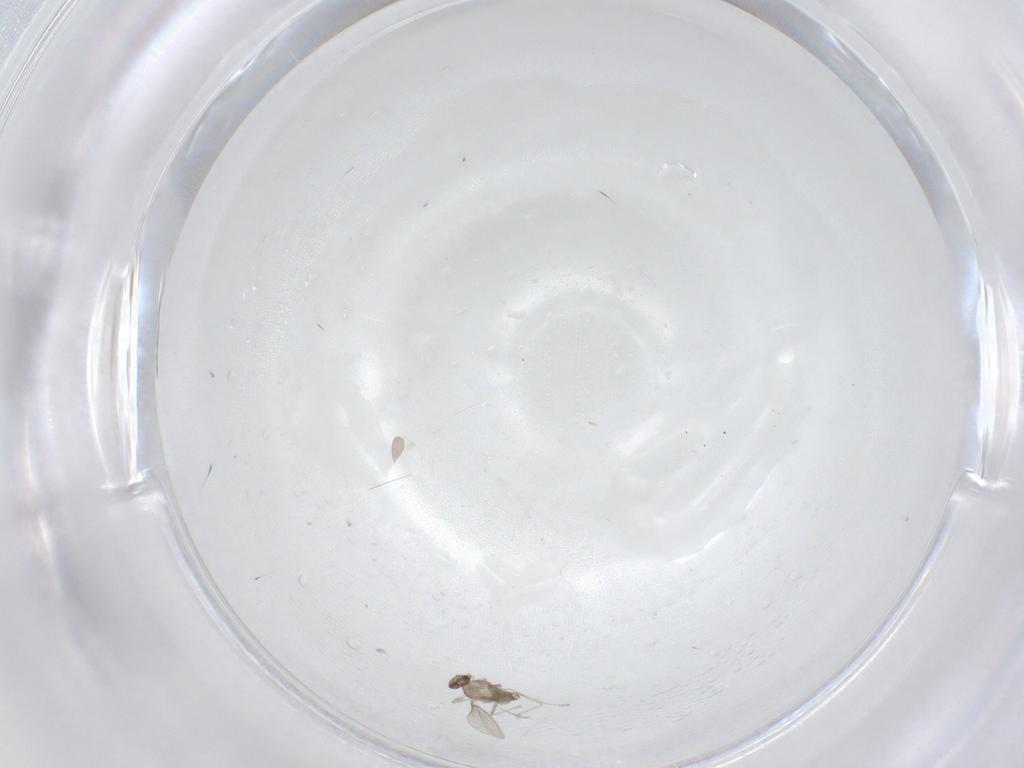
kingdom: Animalia
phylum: Arthropoda
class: Insecta
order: Diptera
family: Cecidomyiidae
